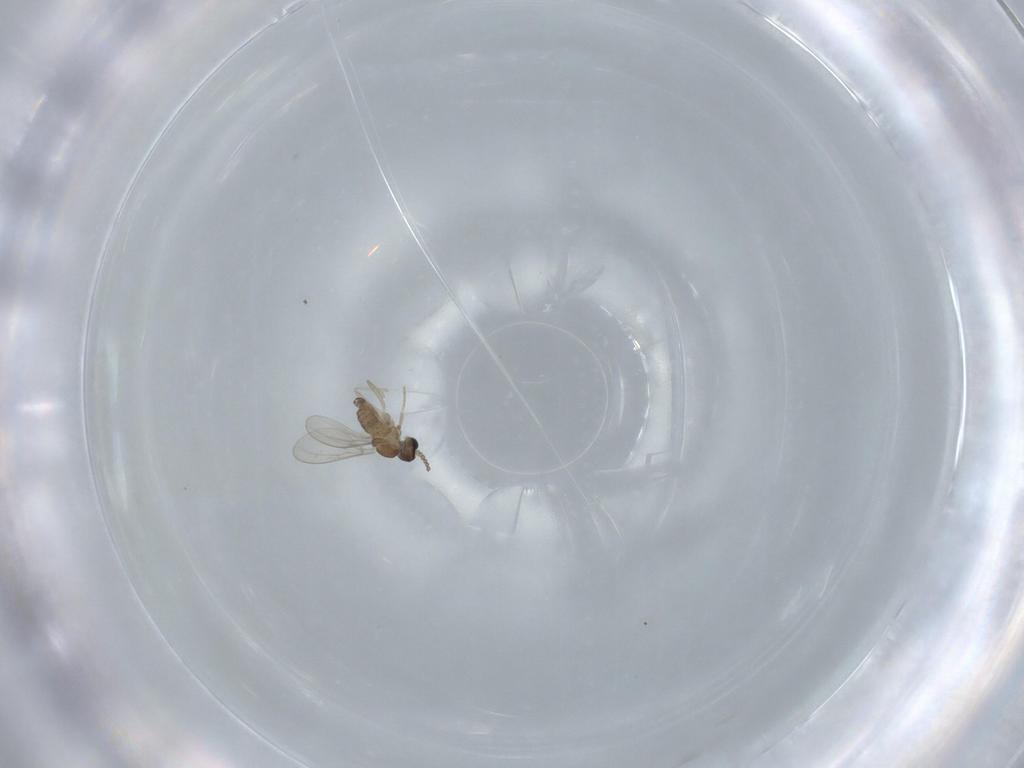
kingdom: Animalia
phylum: Arthropoda
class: Insecta
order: Diptera
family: Cecidomyiidae
